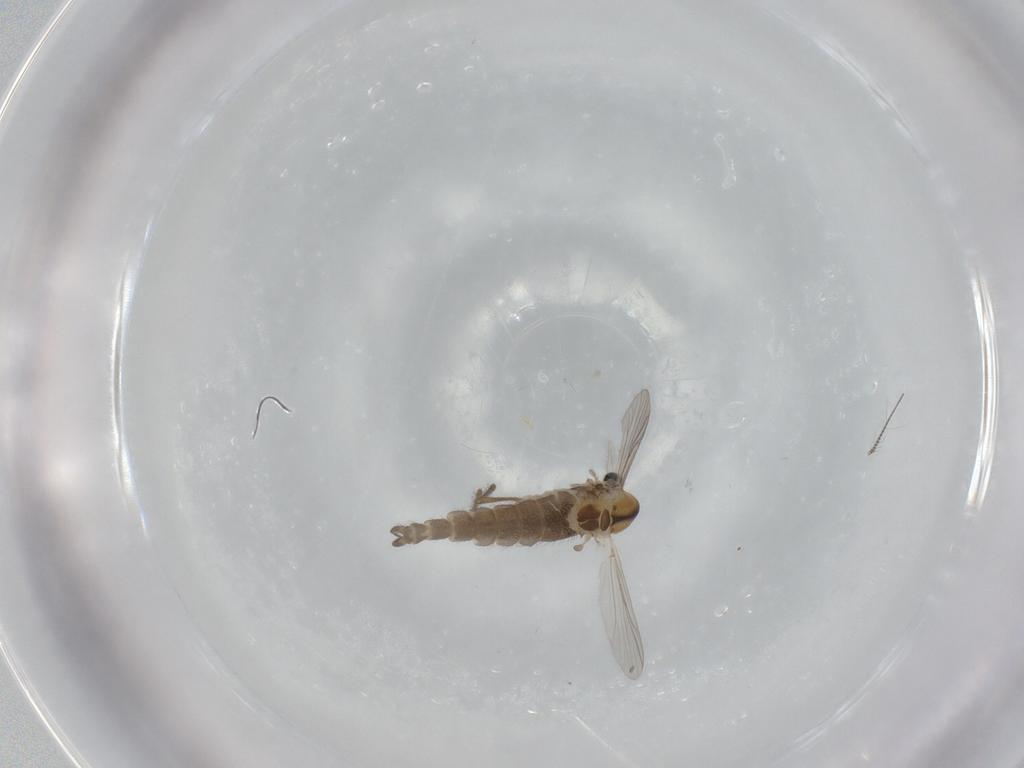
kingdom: Animalia
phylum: Arthropoda
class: Insecta
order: Diptera
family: Chironomidae
